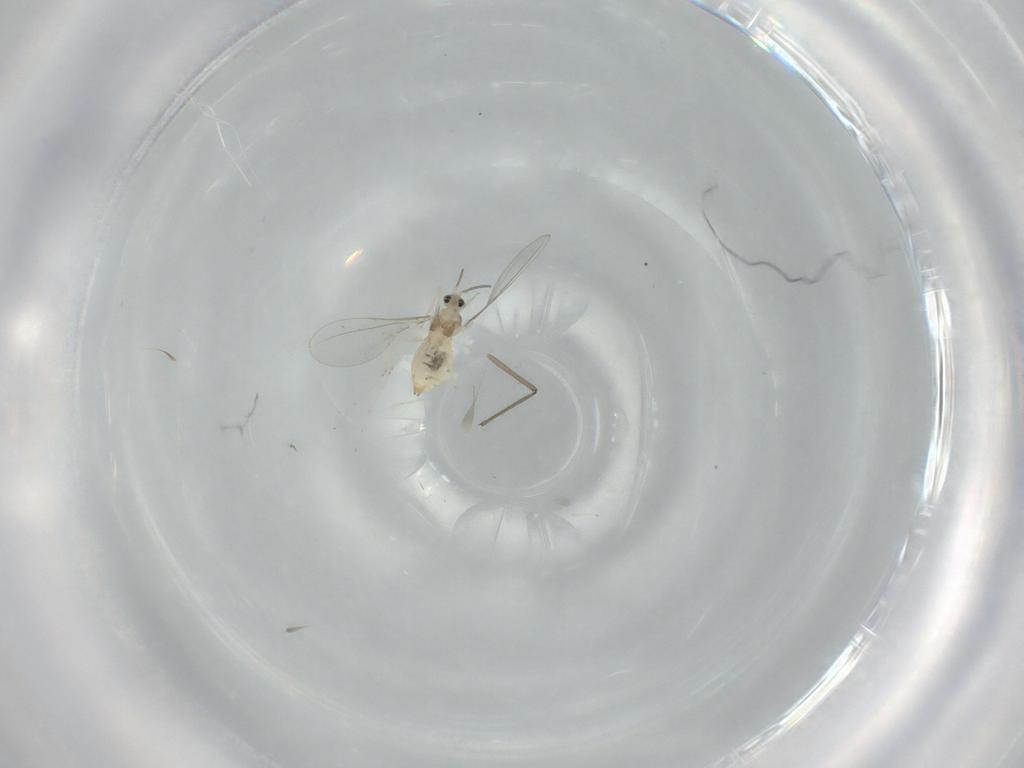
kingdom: Animalia
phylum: Arthropoda
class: Insecta
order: Diptera
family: Cecidomyiidae
